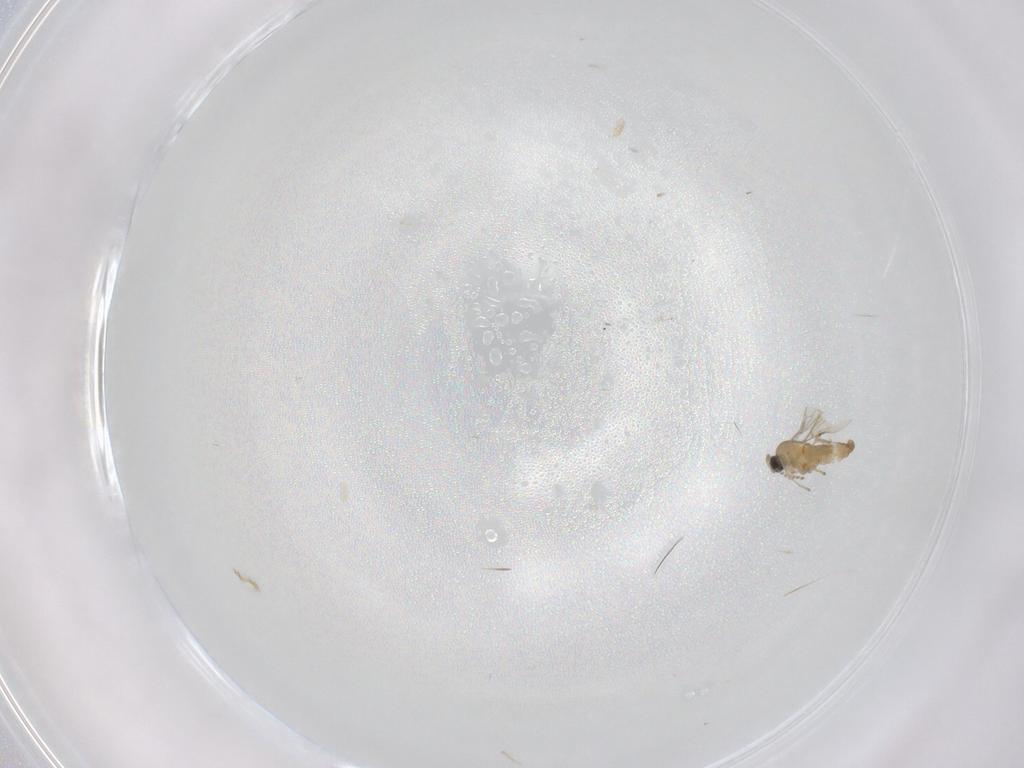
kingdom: Animalia
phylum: Arthropoda
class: Insecta
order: Diptera
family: Cecidomyiidae
